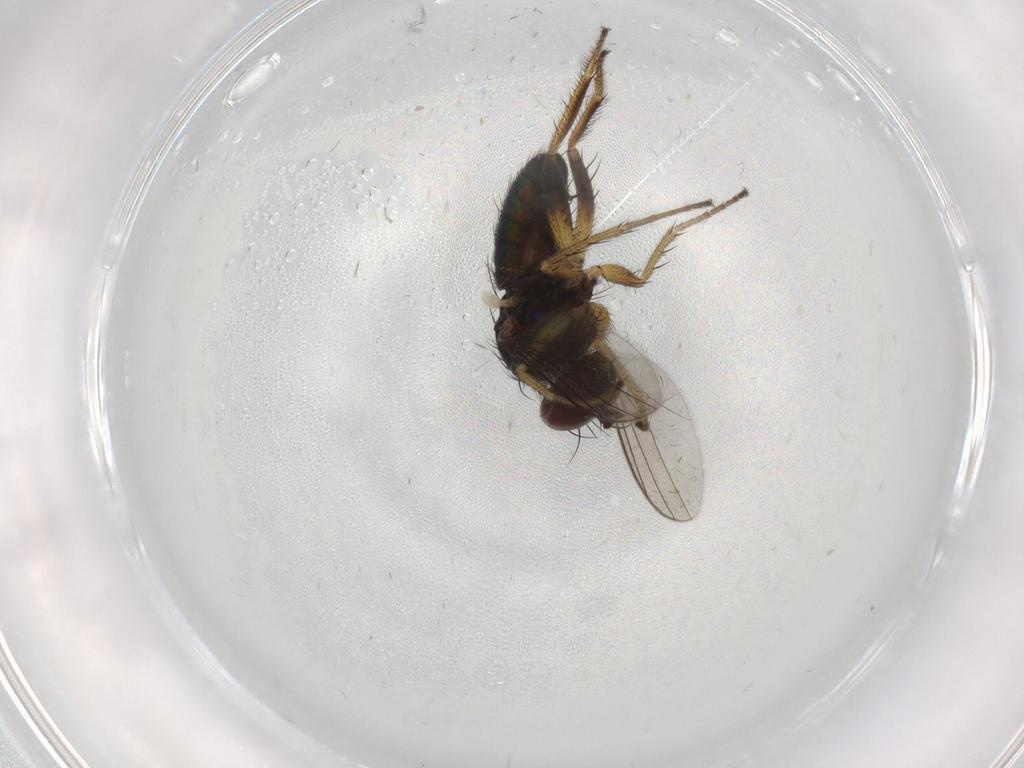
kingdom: Animalia
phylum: Arthropoda
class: Insecta
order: Diptera
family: Dolichopodidae
